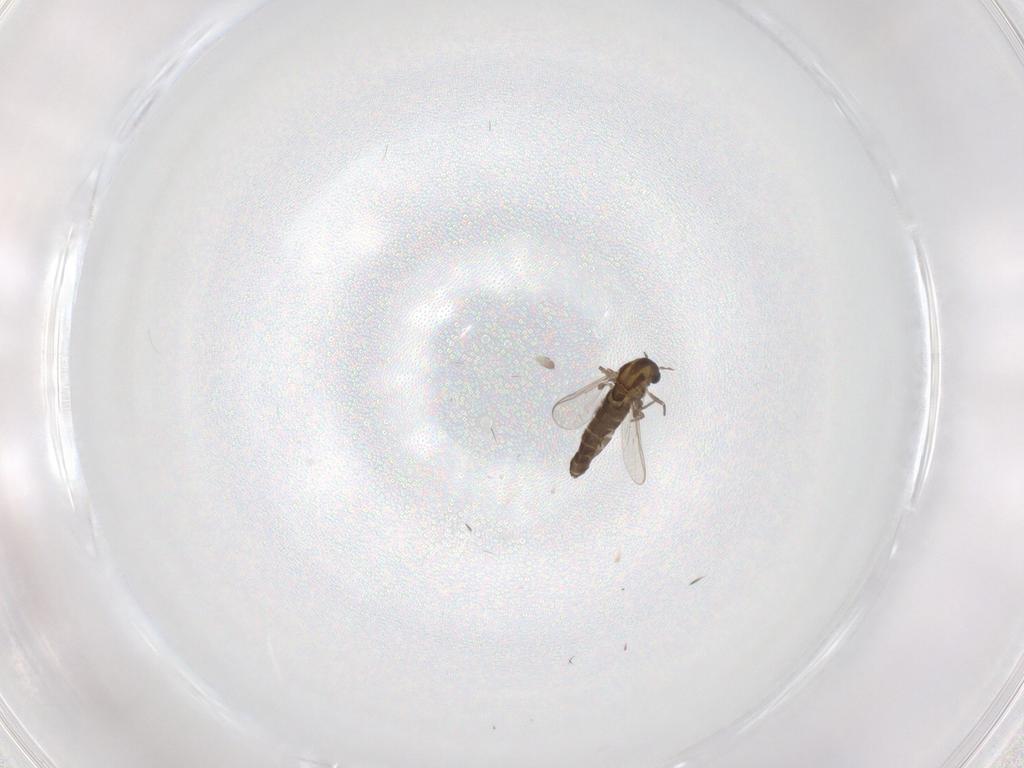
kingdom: Animalia
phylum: Arthropoda
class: Insecta
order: Diptera
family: Chironomidae
